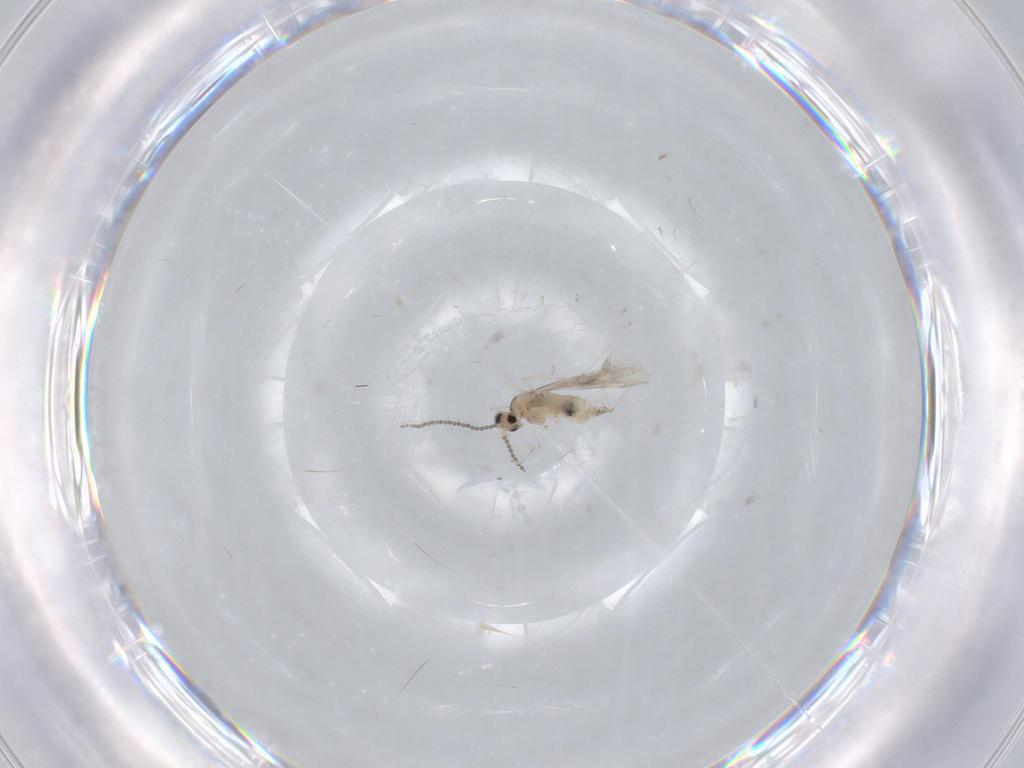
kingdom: Animalia
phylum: Arthropoda
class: Insecta
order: Diptera
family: Cecidomyiidae
